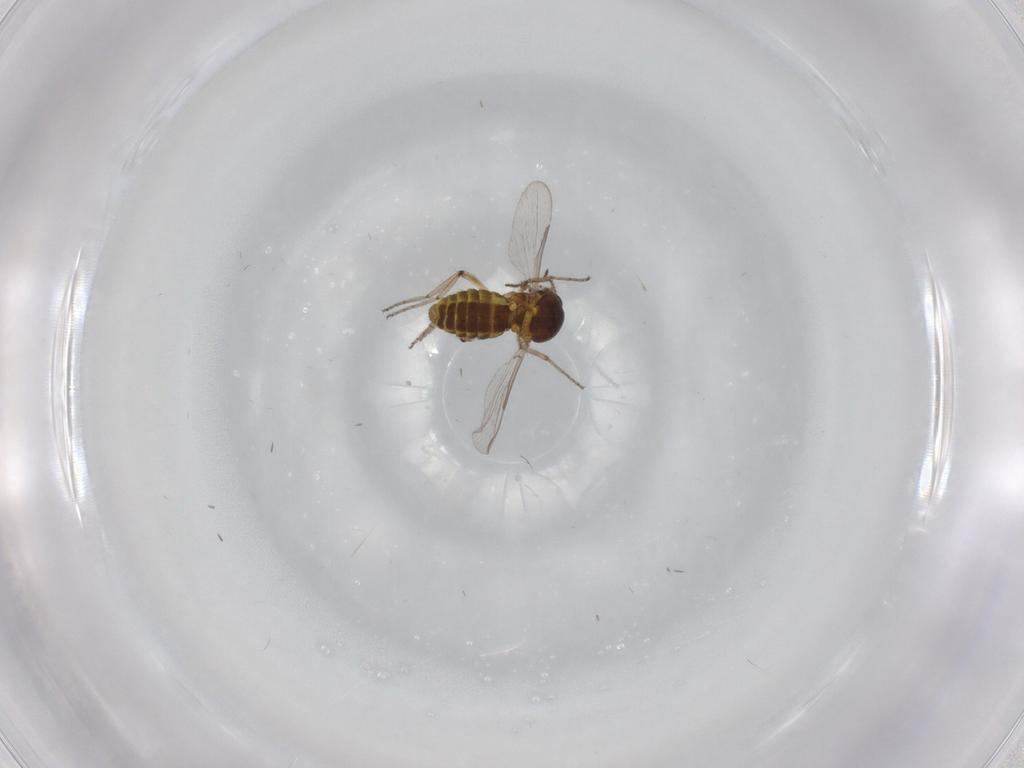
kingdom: Animalia
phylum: Arthropoda
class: Insecta
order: Diptera
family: Ceratopogonidae
